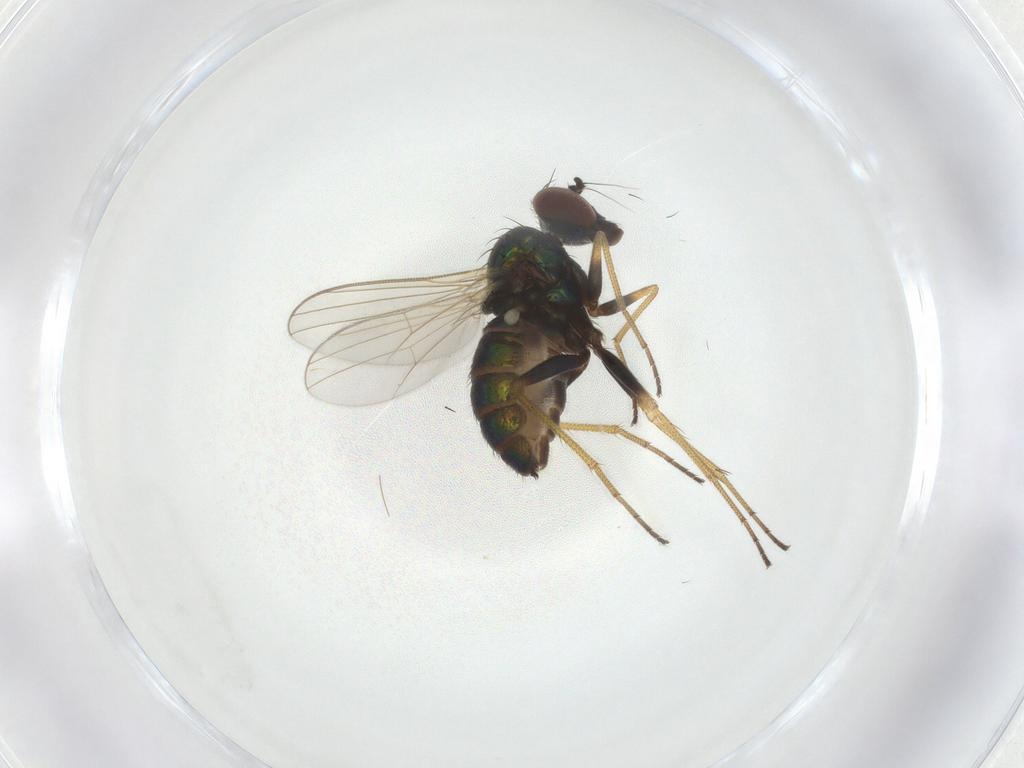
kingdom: Animalia
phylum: Arthropoda
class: Insecta
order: Diptera
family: Dolichopodidae
